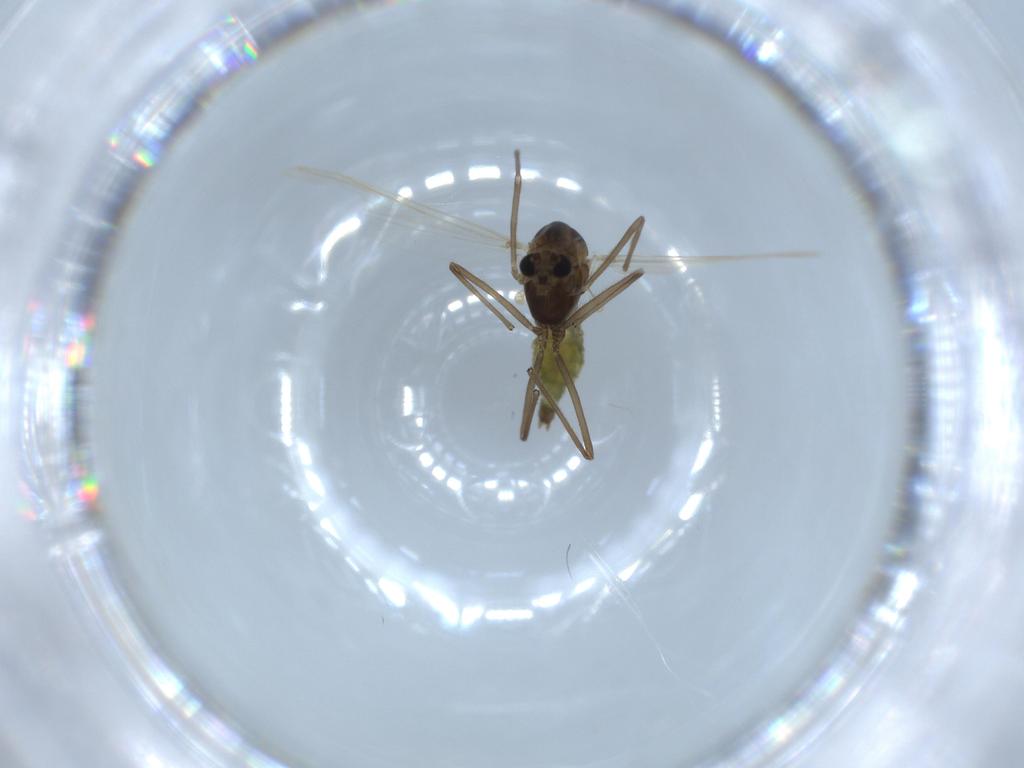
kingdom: Animalia
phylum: Arthropoda
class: Insecta
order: Diptera
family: Chironomidae
